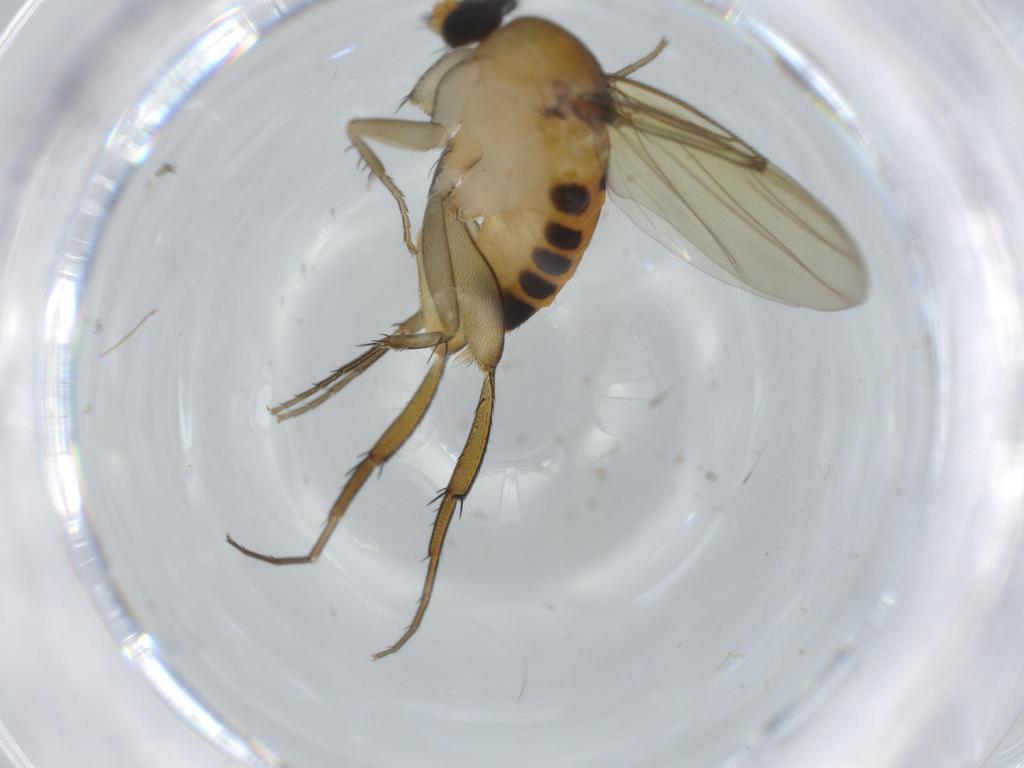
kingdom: Animalia
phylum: Arthropoda
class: Insecta
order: Diptera
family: Phoridae
